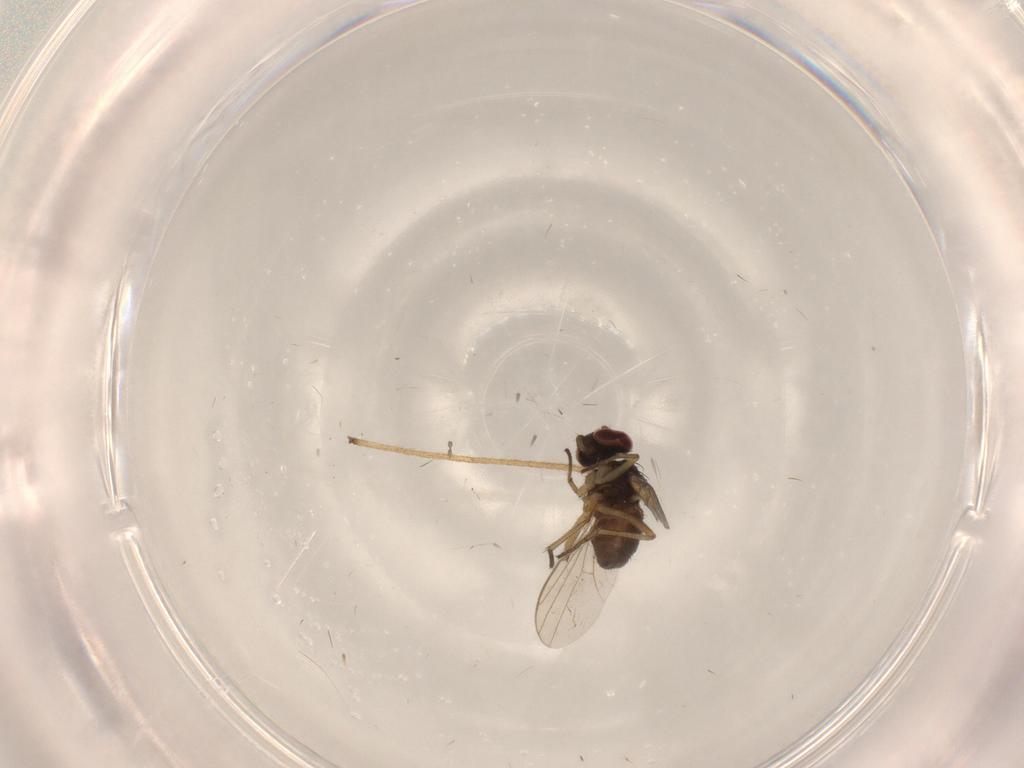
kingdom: Animalia
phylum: Arthropoda
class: Insecta
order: Diptera
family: Dolichopodidae
